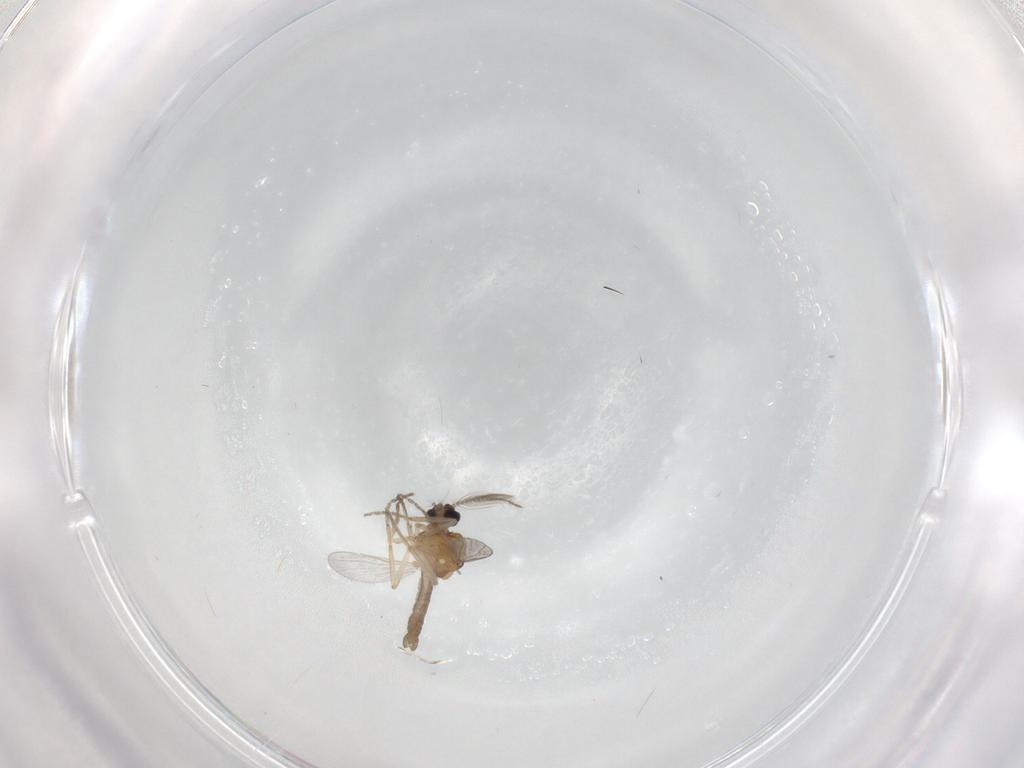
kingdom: Animalia
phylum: Arthropoda
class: Insecta
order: Diptera
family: Chironomidae
